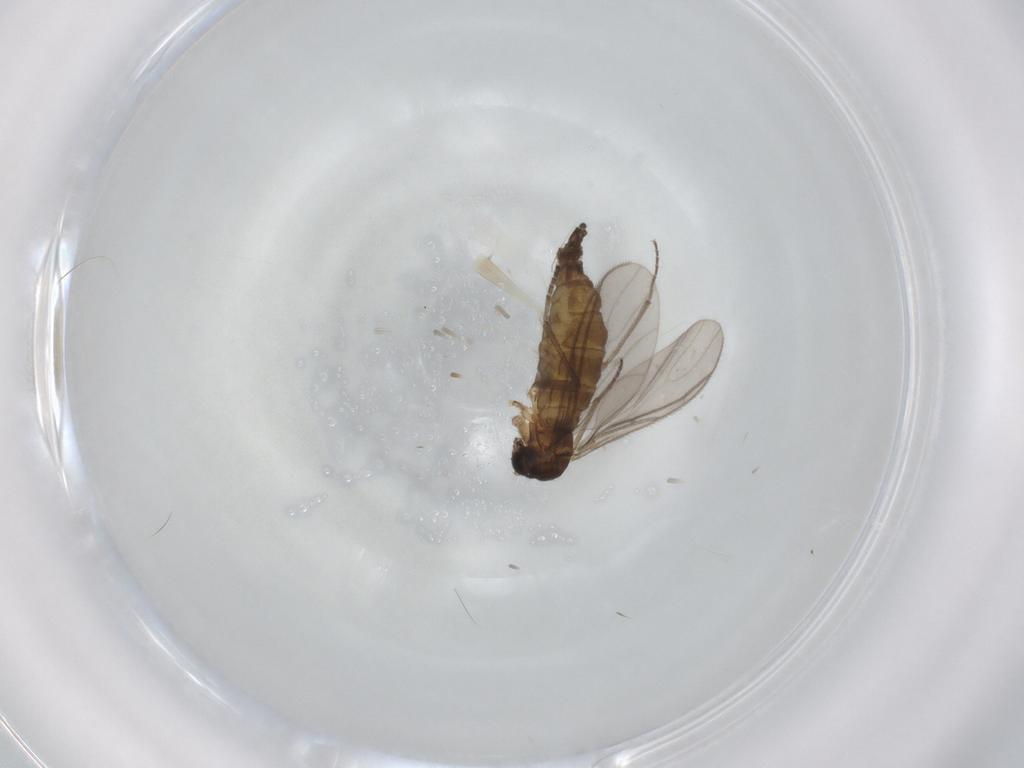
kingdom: Animalia
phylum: Arthropoda
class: Insecta
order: Diptera
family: Sciaridae
